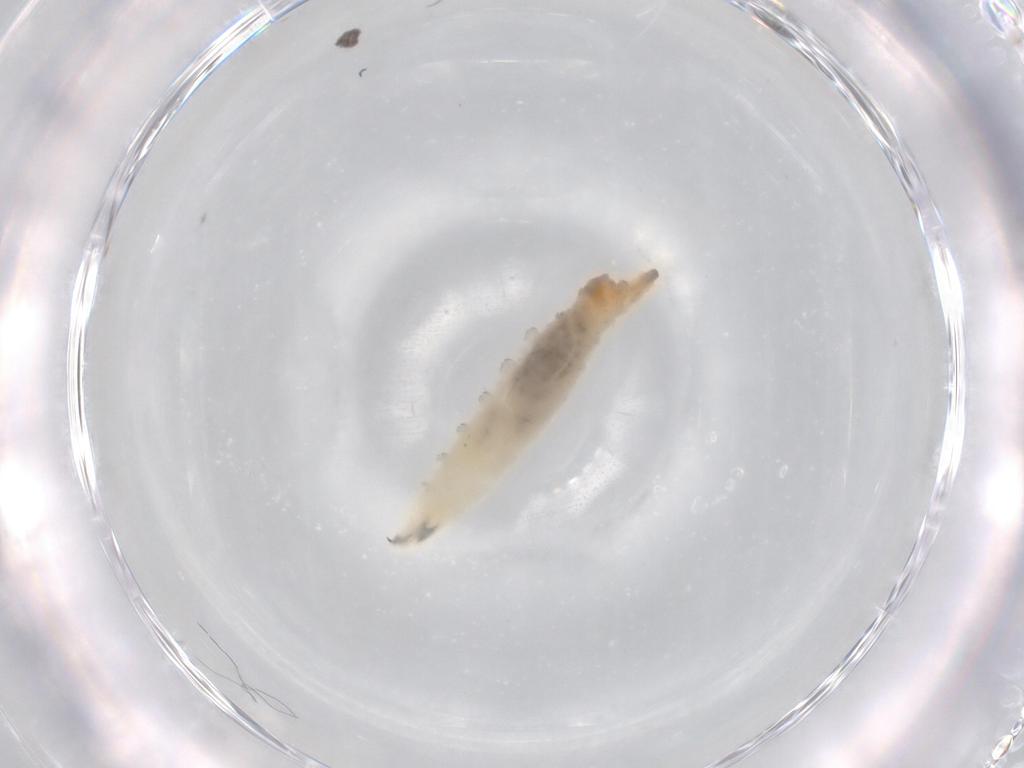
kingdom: Animalia
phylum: Arthropoda
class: Insecta
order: Diptera
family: Drosophilidae
